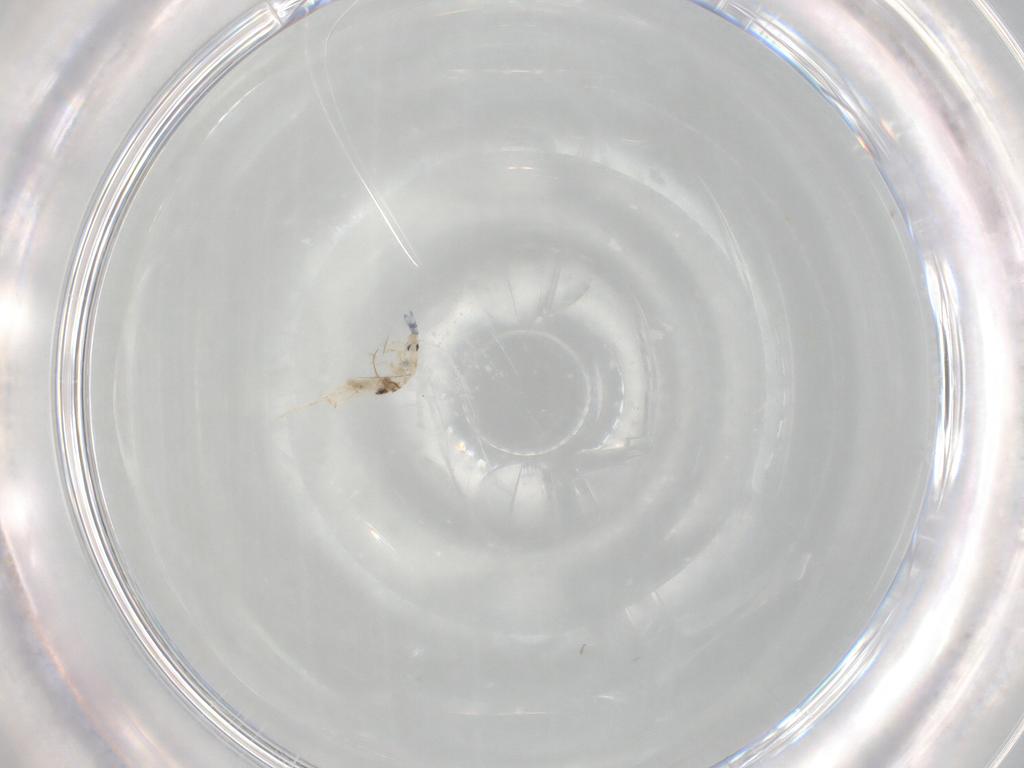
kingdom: Animalia
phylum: Arthropoda
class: Collembola
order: Entomobryomorpha
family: Entomobryidae
